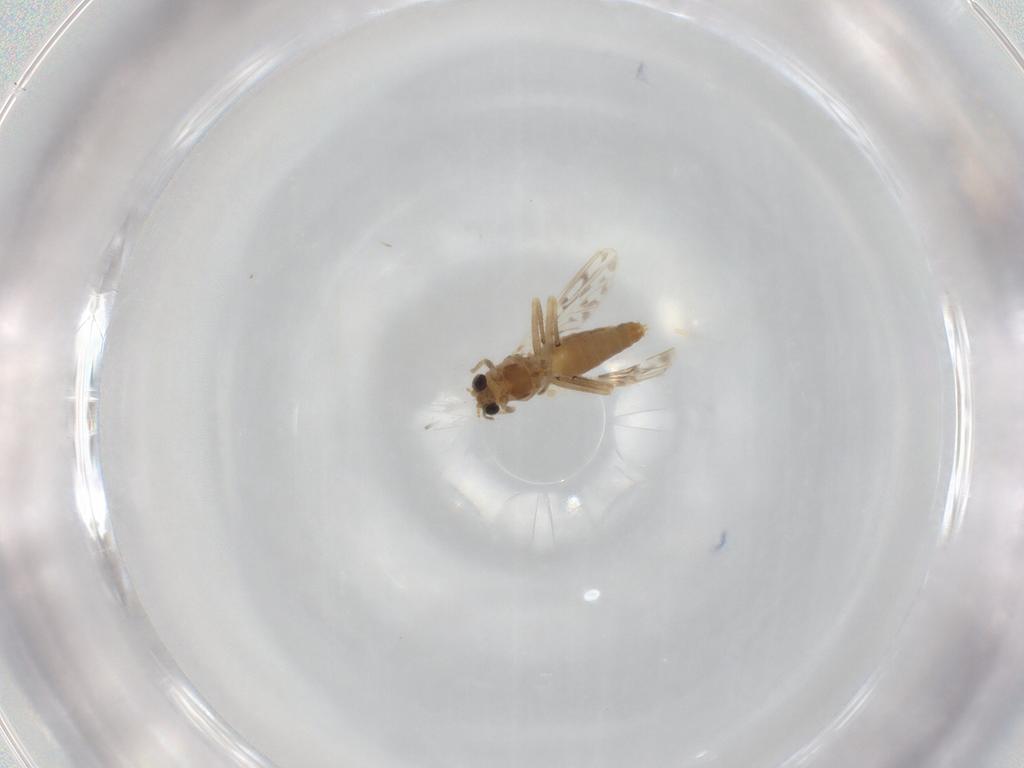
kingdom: Animalia
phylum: Arthropoda
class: Insecta
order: Diptera
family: Chironomidae
